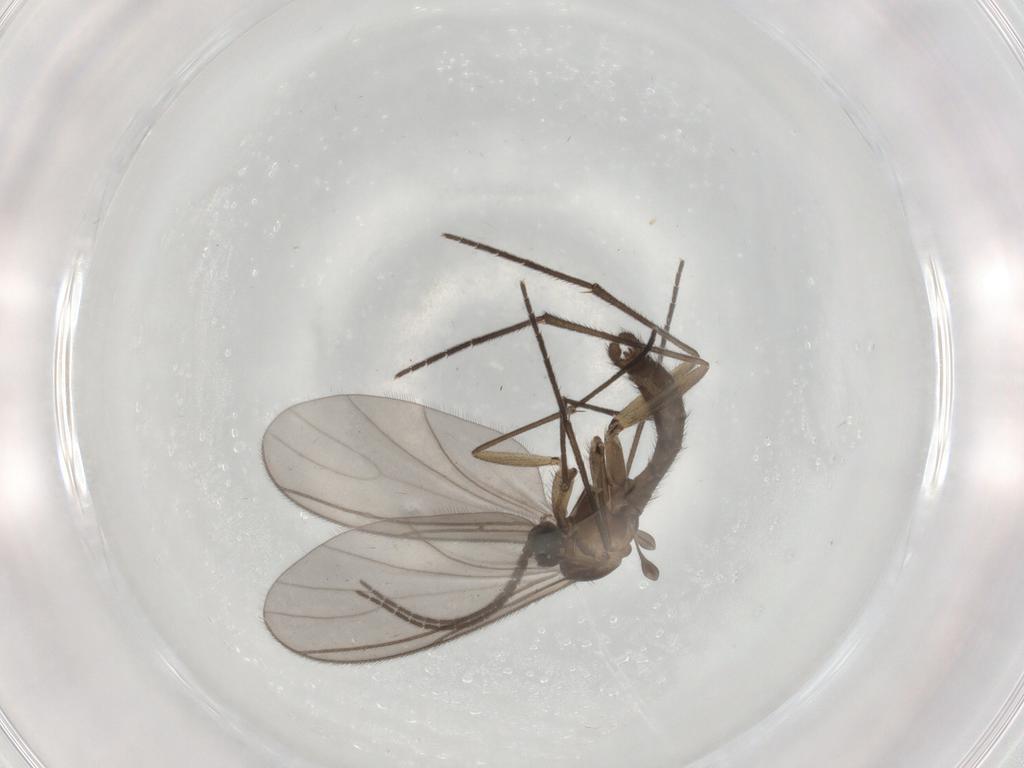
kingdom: Animalia
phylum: Arthropoda
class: Insecta
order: Diptera
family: Sciaridae
